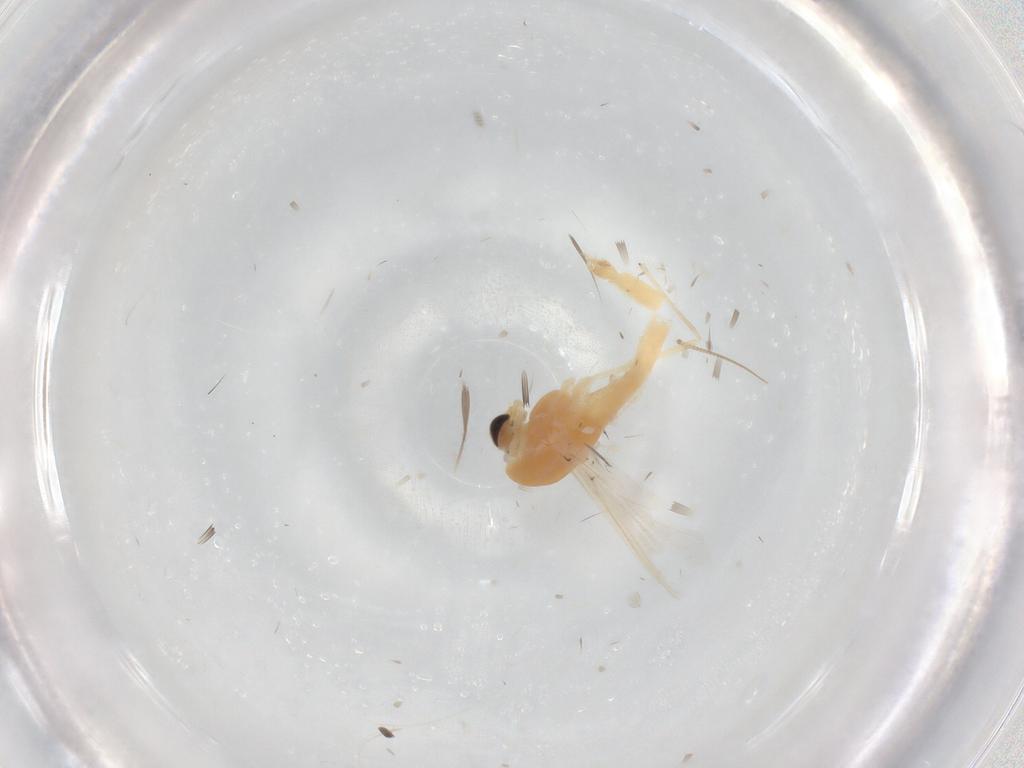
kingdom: Animalia
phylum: Arthropoda
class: Insecta
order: Diptera
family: Chironomidae
